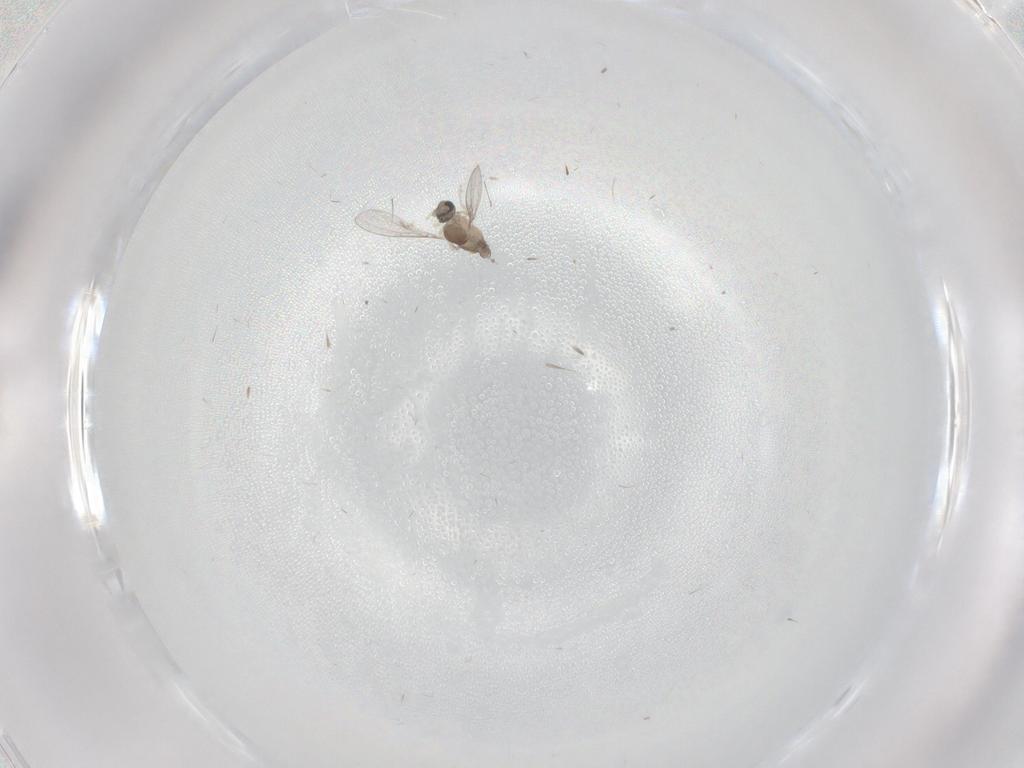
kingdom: Animalia
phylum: Arthropoda
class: Insecta
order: Diptera
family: Cecidomyiidae
